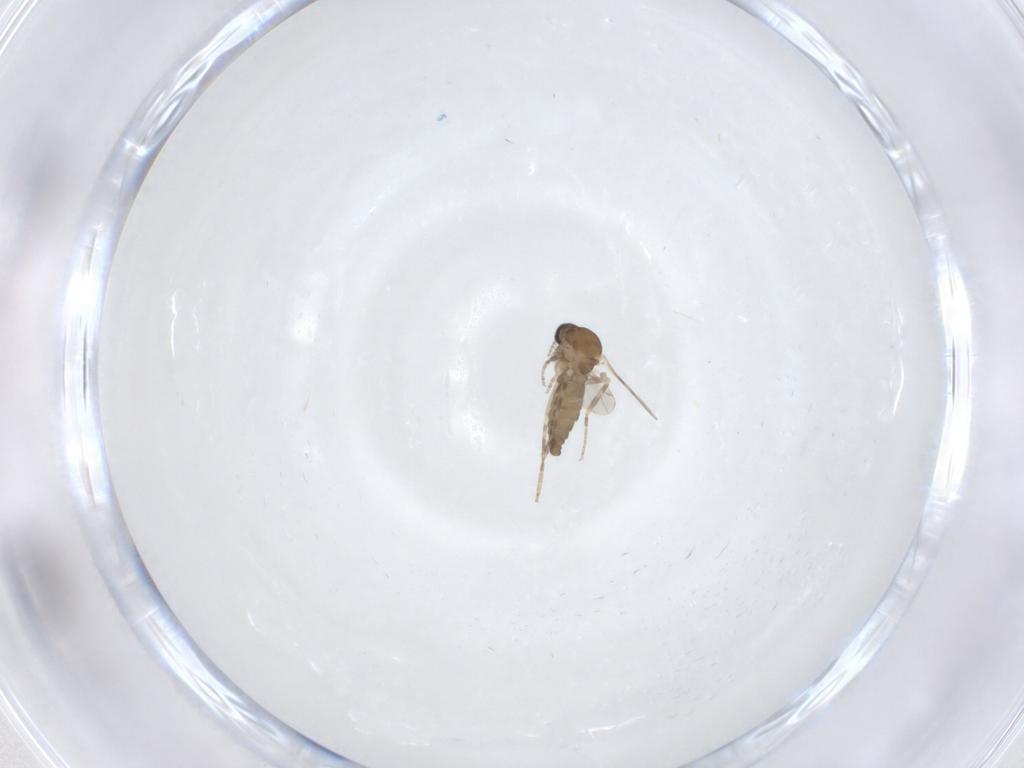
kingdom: Animalia
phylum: Arthropoda
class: Insecta
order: Diptera
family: Ceratopogonidae
